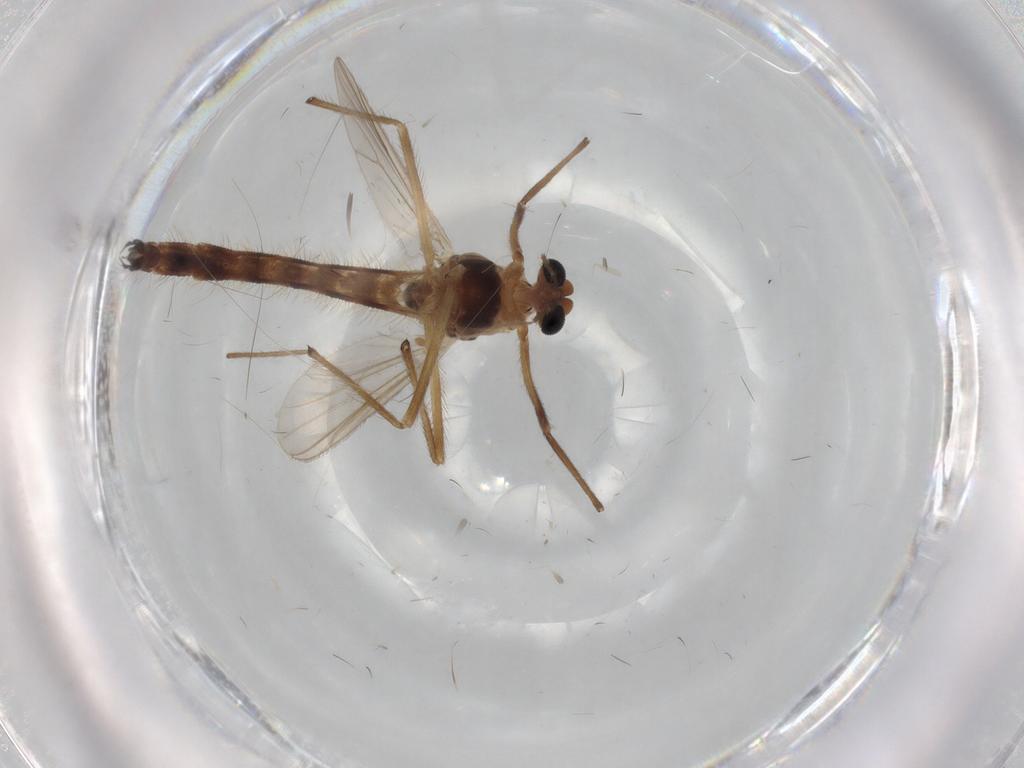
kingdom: Animalia
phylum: Arthropoda
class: Insecta
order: Diptera
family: Chironomidae
